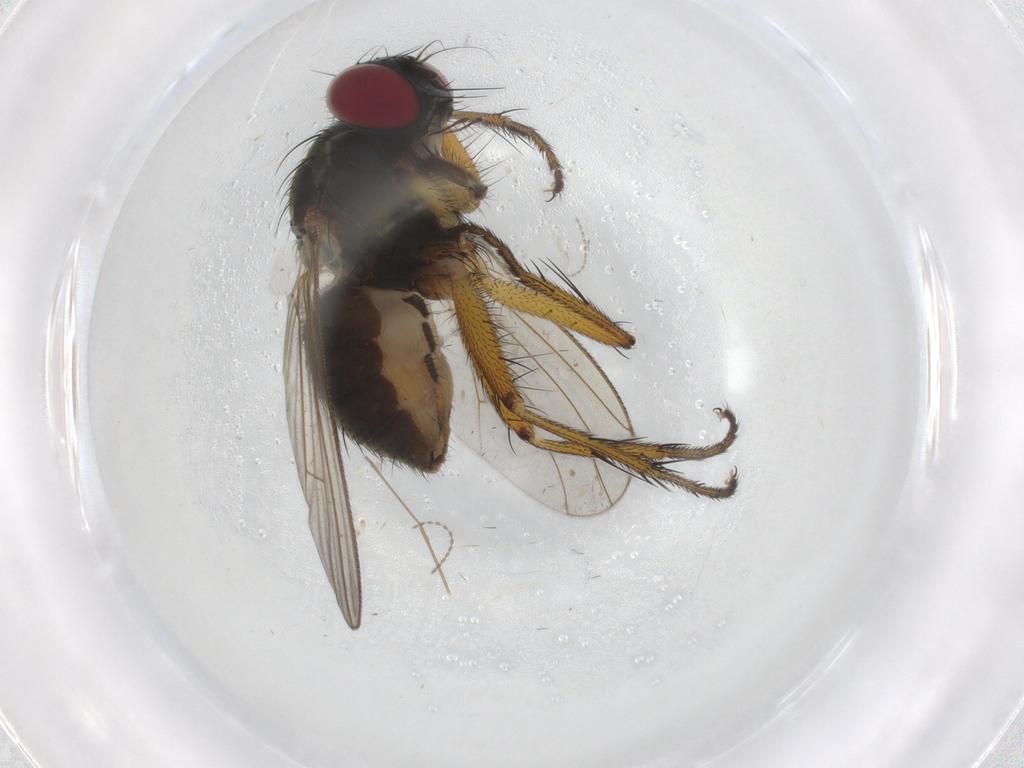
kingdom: Animalia
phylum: Arthropoda
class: Insecta
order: Diptera
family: Muscidae
